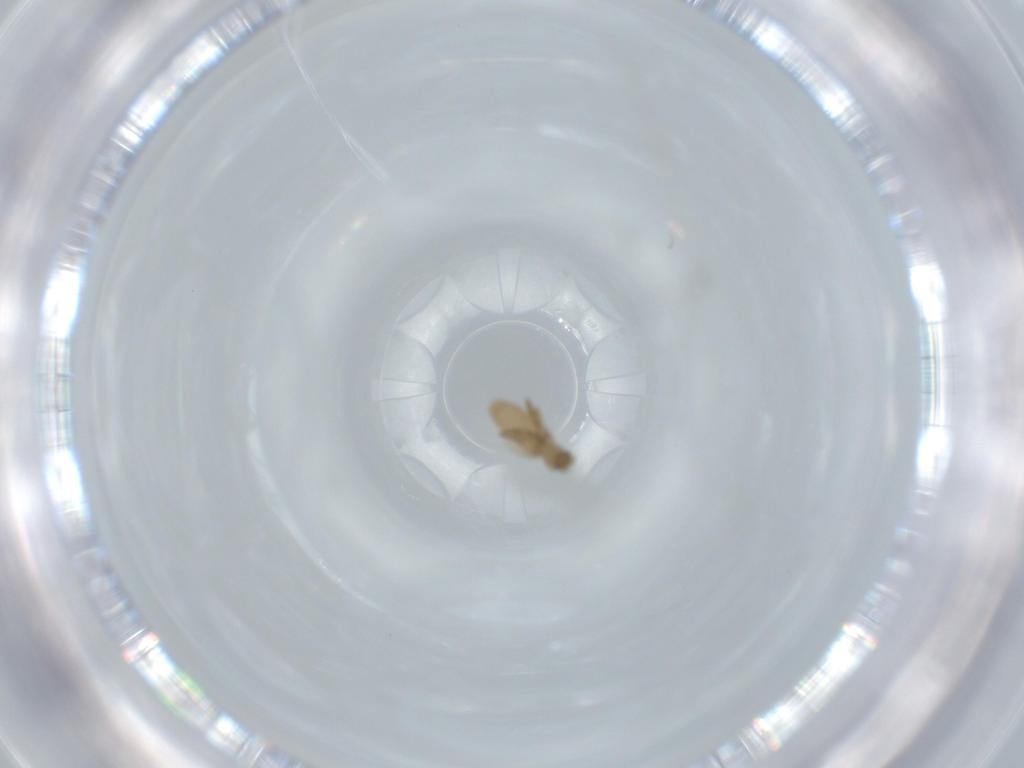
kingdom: Animalia
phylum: Arthropoda
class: Insecta
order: Diptera
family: Phoridae
